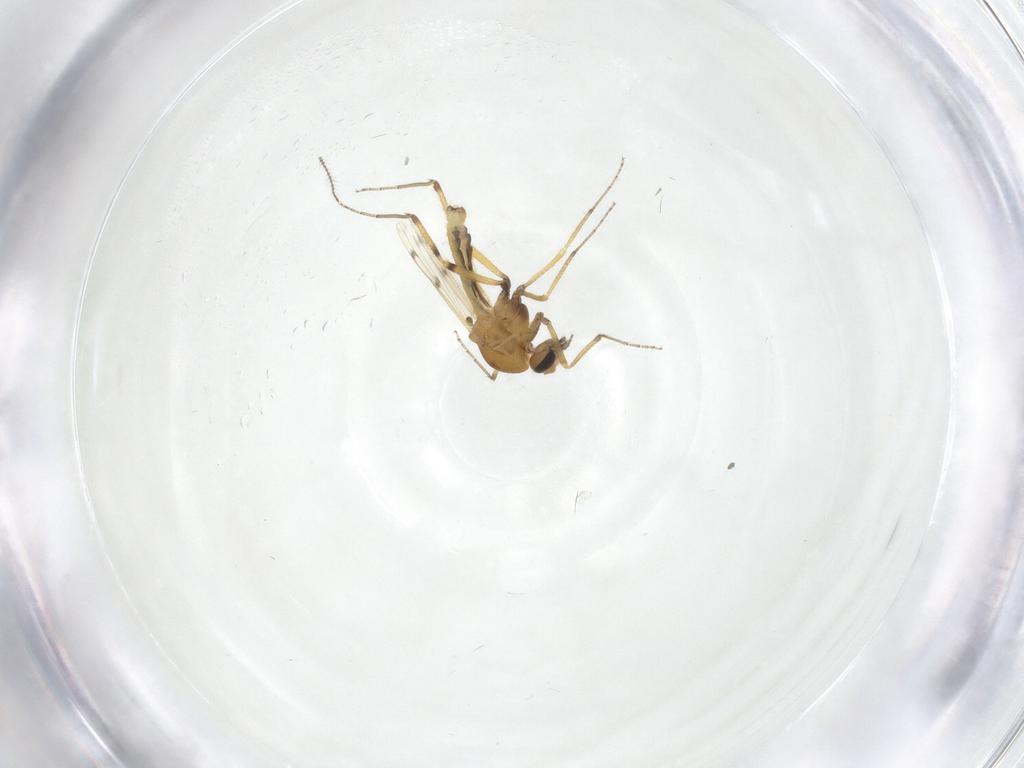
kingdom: Animalia
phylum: Arthropoda
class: Insecta
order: Diptera
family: Ceratopogonidae
